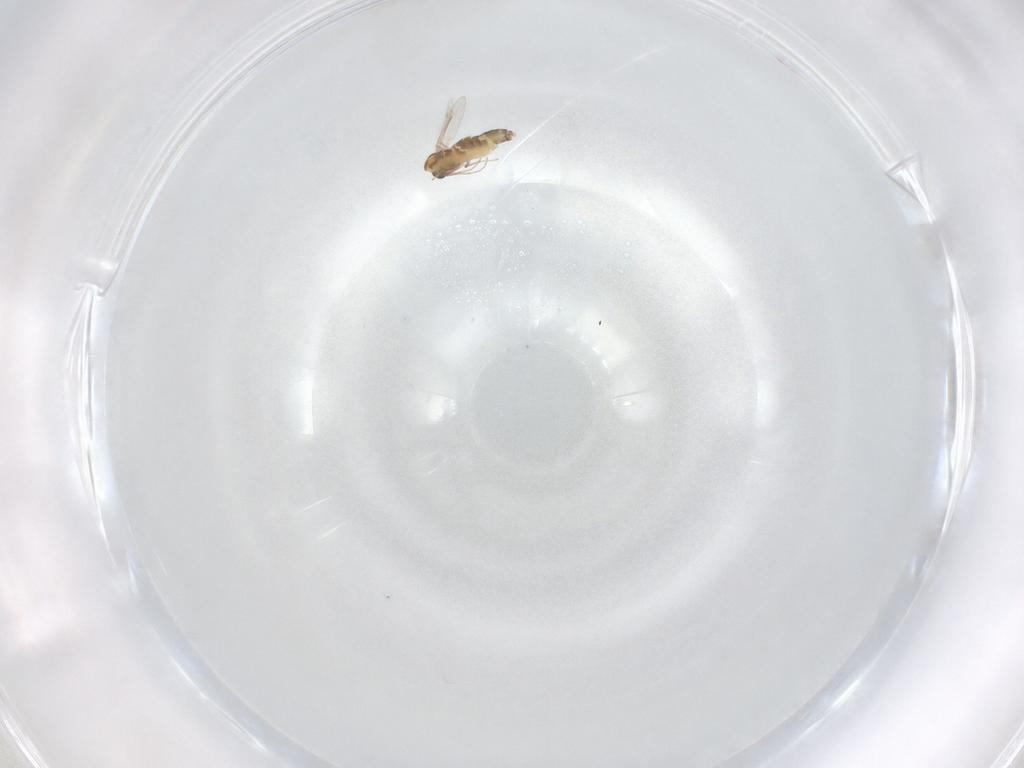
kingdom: Animalia
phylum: Arthropoda
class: Insecta
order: Diptera
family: Chironomidae
